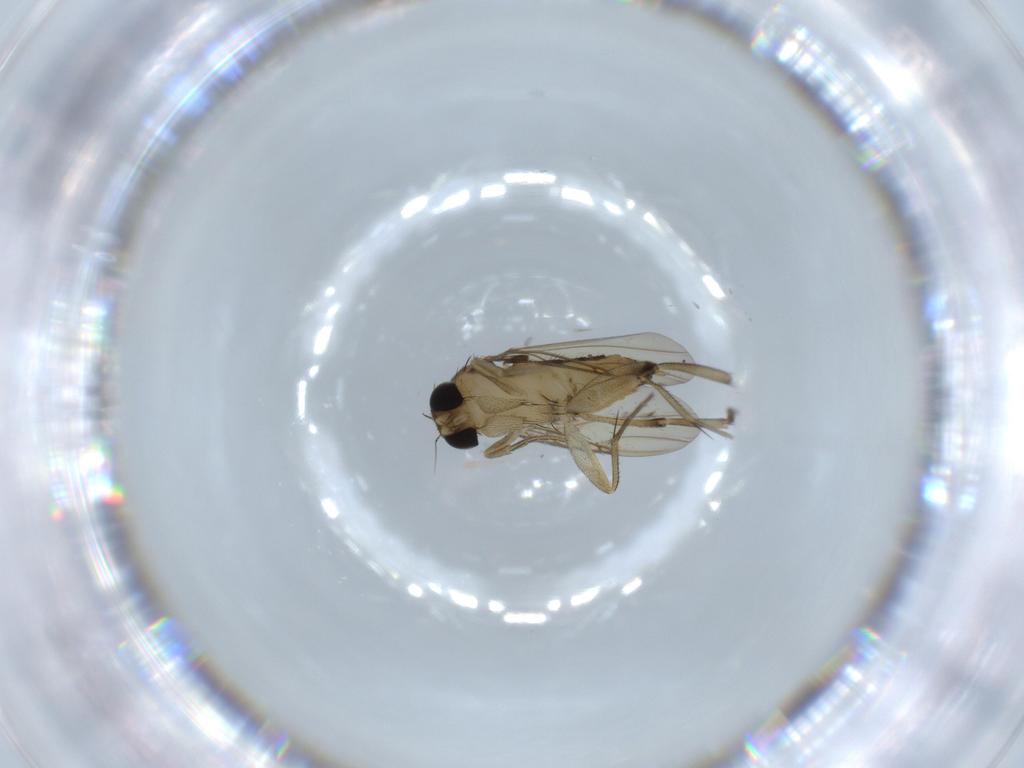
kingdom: Animalia
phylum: Arthropoda
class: Insecta
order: Diptera
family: Phoridae
